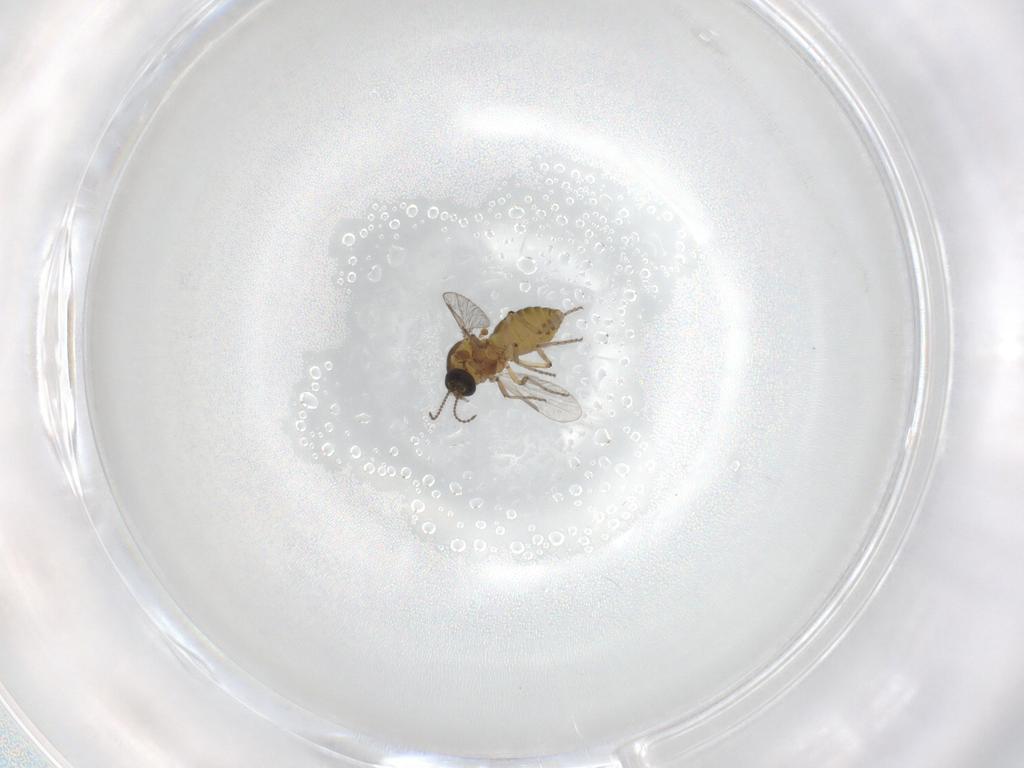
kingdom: Animalia
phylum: Arthropoda
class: Insecta
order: Diptera
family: Ceratopogonidae
